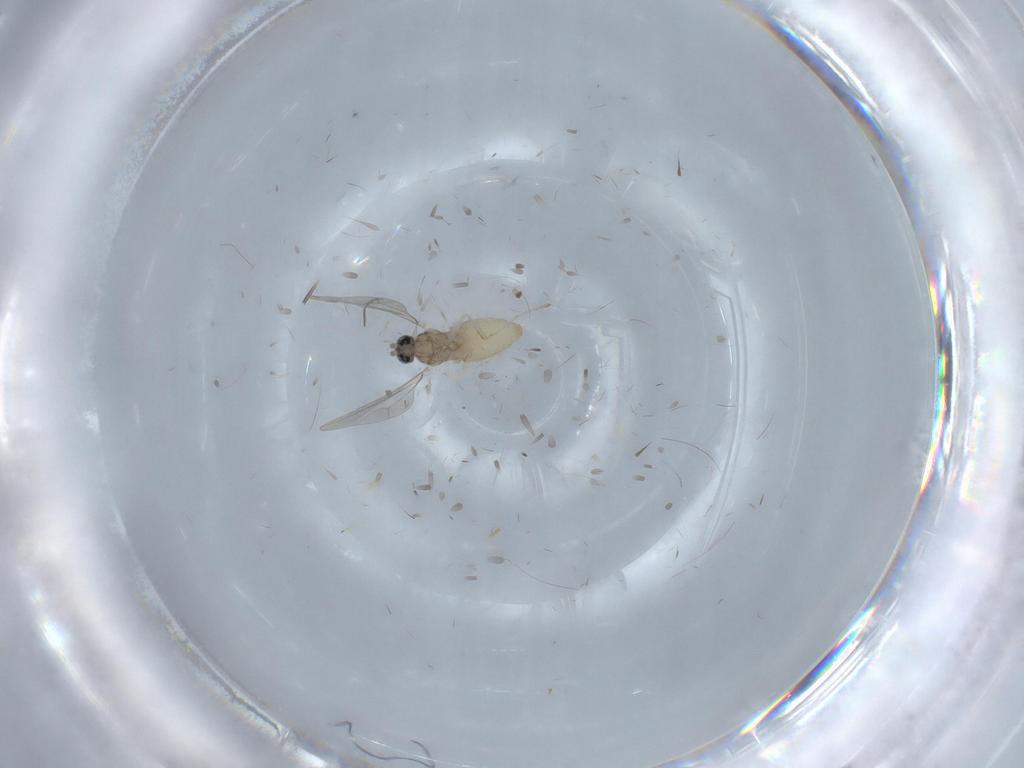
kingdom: Animalia
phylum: Arthropoda
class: Insecta
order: Diptera
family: Cecidomyiidae
